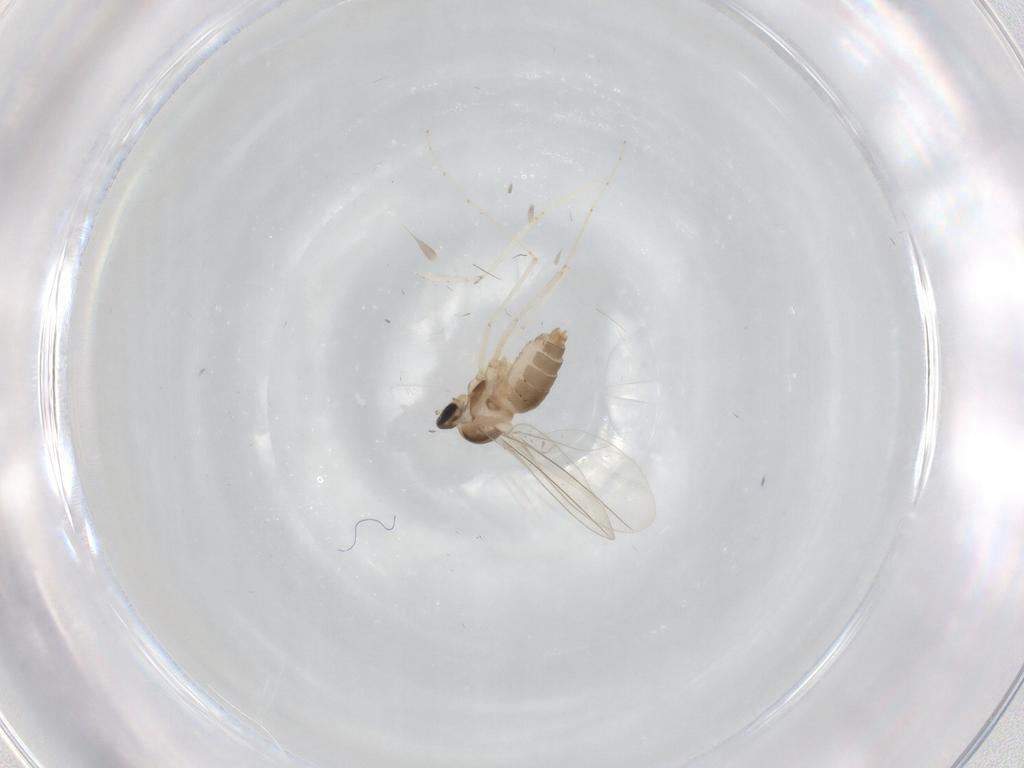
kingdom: Animalia
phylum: Arthropoda
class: Insecta
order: Diptera
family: Cecidomyiidae
